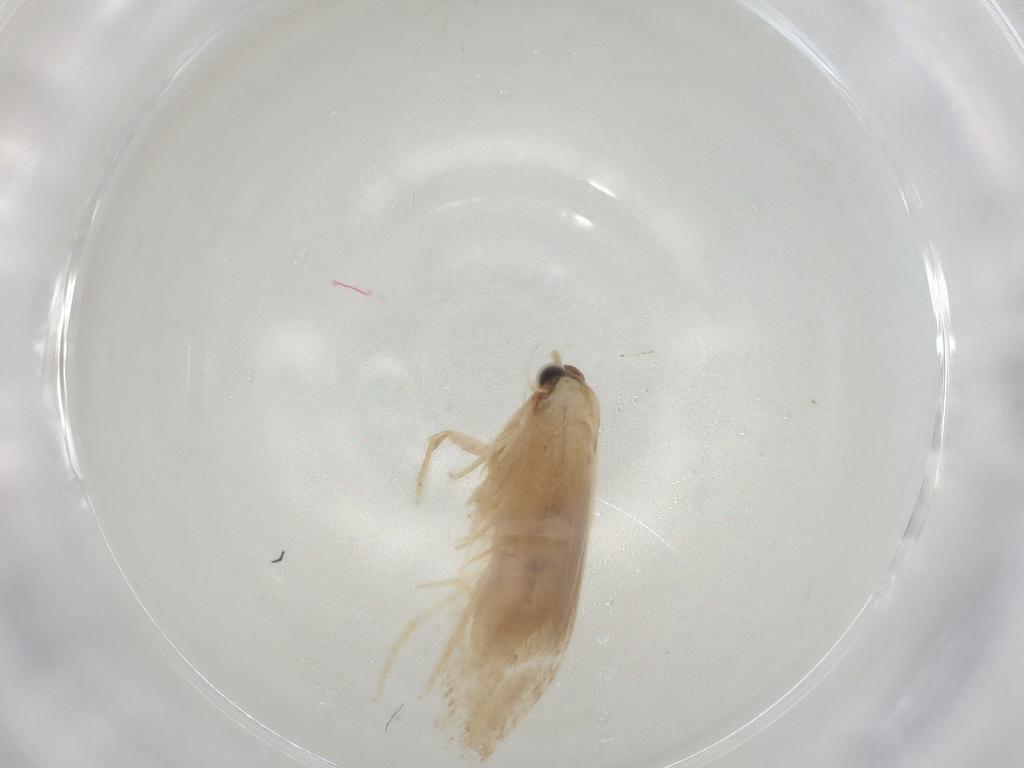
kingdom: Animalia
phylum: Arthropoda
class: Insecta
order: Lepidoptera
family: Nepticulidae
